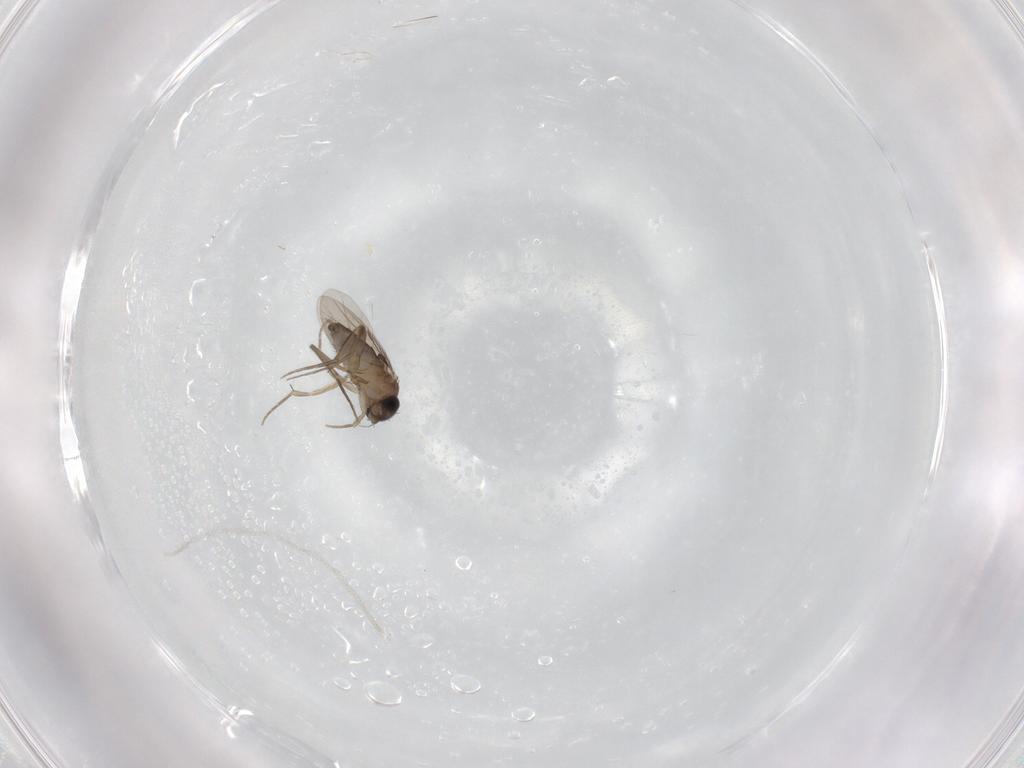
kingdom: Animalia
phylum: Arthropoda
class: Insecta
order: Diptera
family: Phoridae
